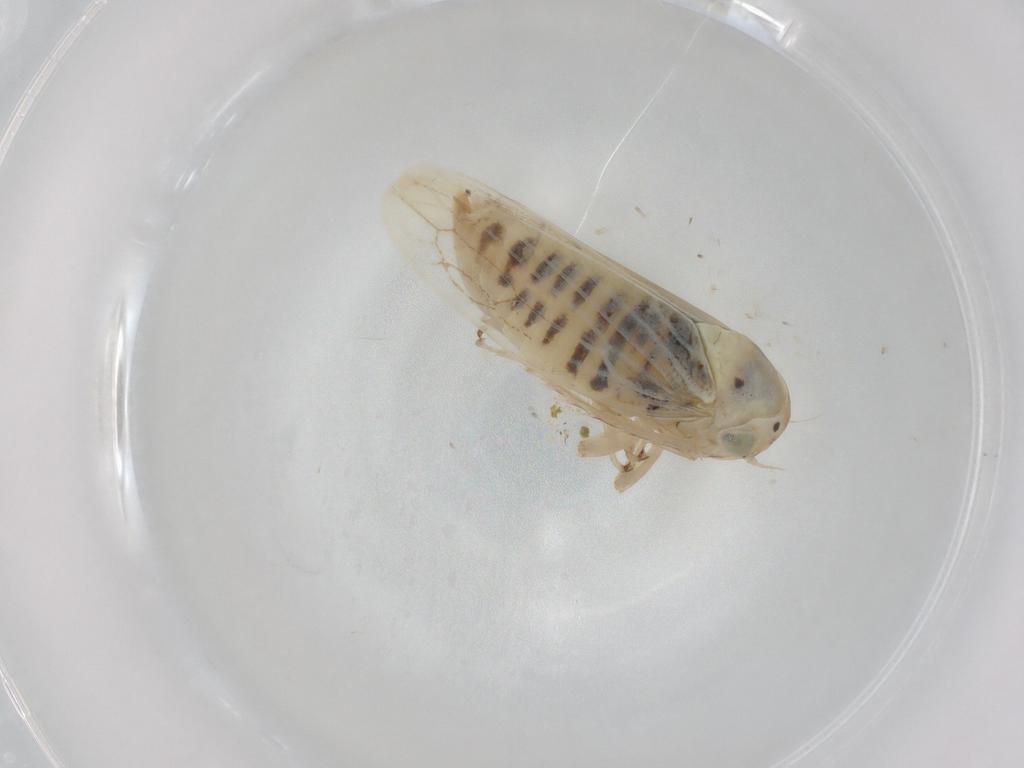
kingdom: Animalia
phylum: Arthropoda
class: Insecta
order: Hemiptera
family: Cicadellidae
